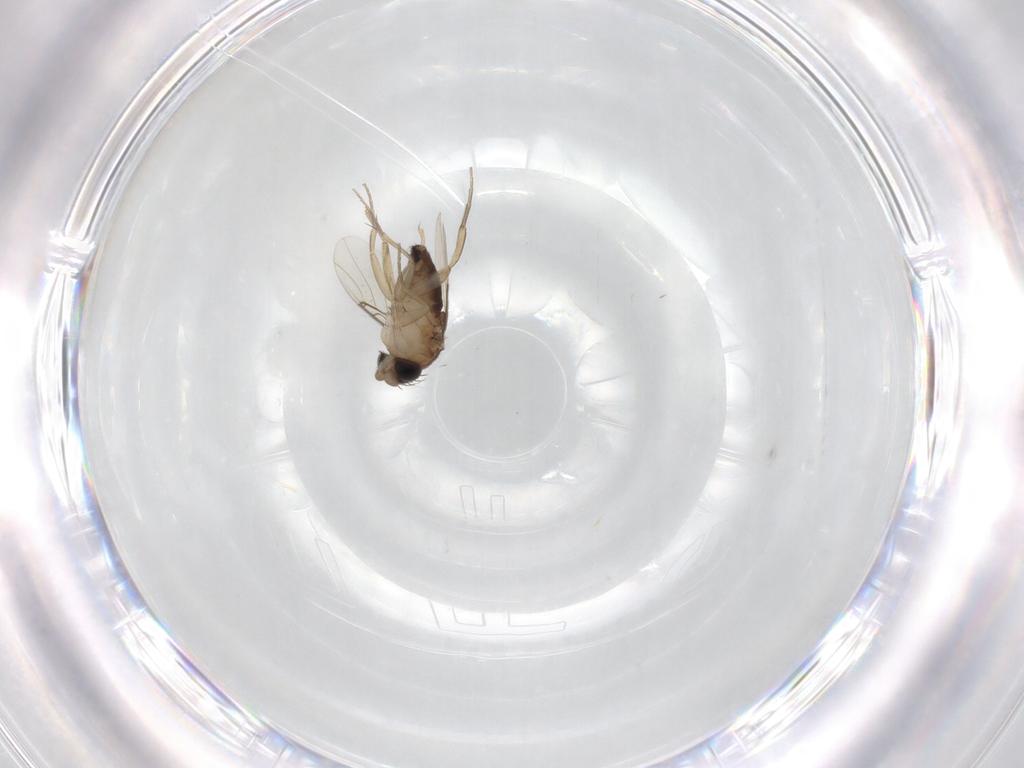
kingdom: Animalia
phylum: Arthropoda
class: Insecta
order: Diptera
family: Phoridae
